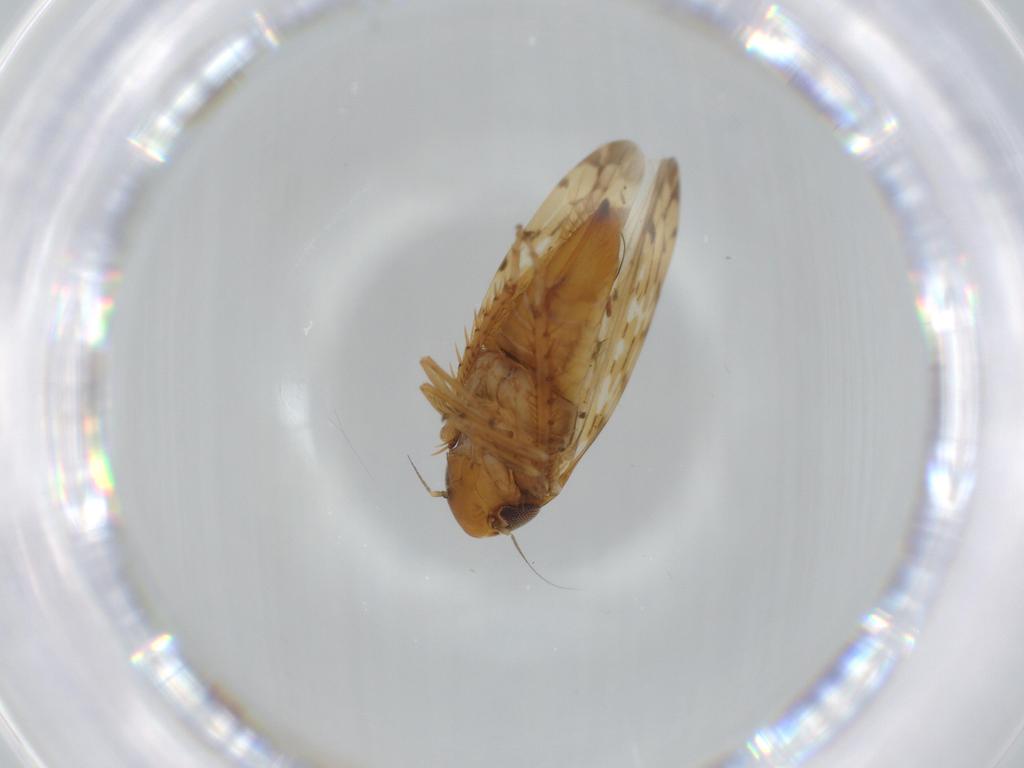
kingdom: Animalia
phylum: Arthropoda
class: Insecta
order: Hemiptera
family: Cicadellidae
